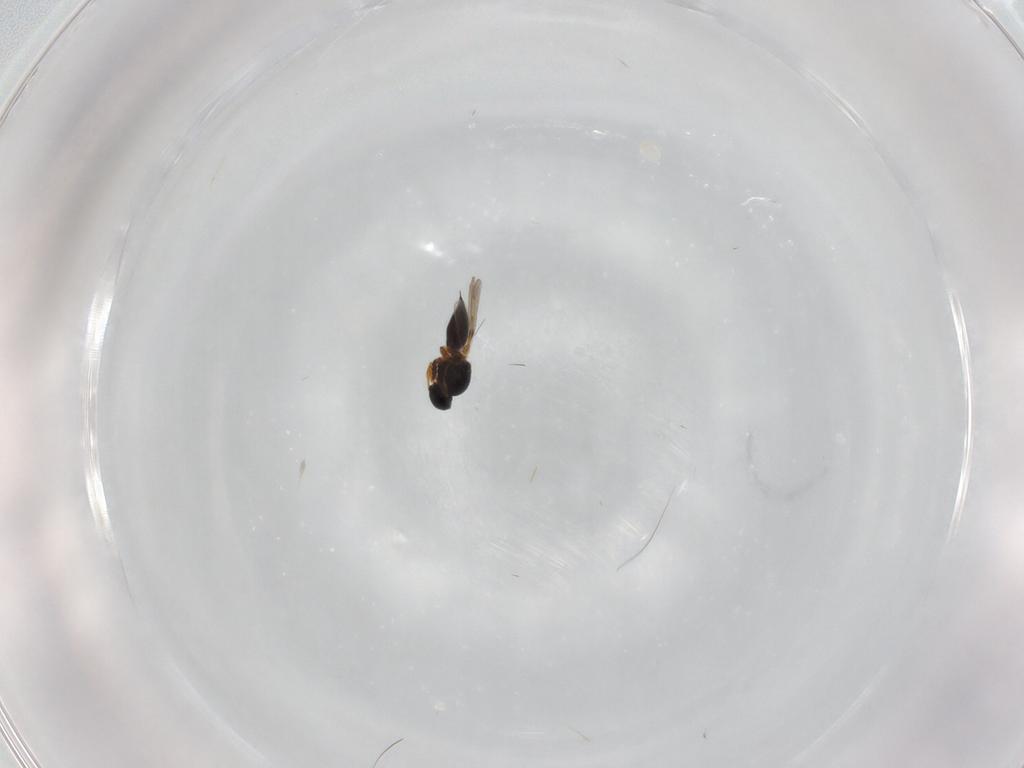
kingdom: Animalia
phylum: Arthropoda
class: Insecta
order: Hymenoptera
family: Platygastridae
